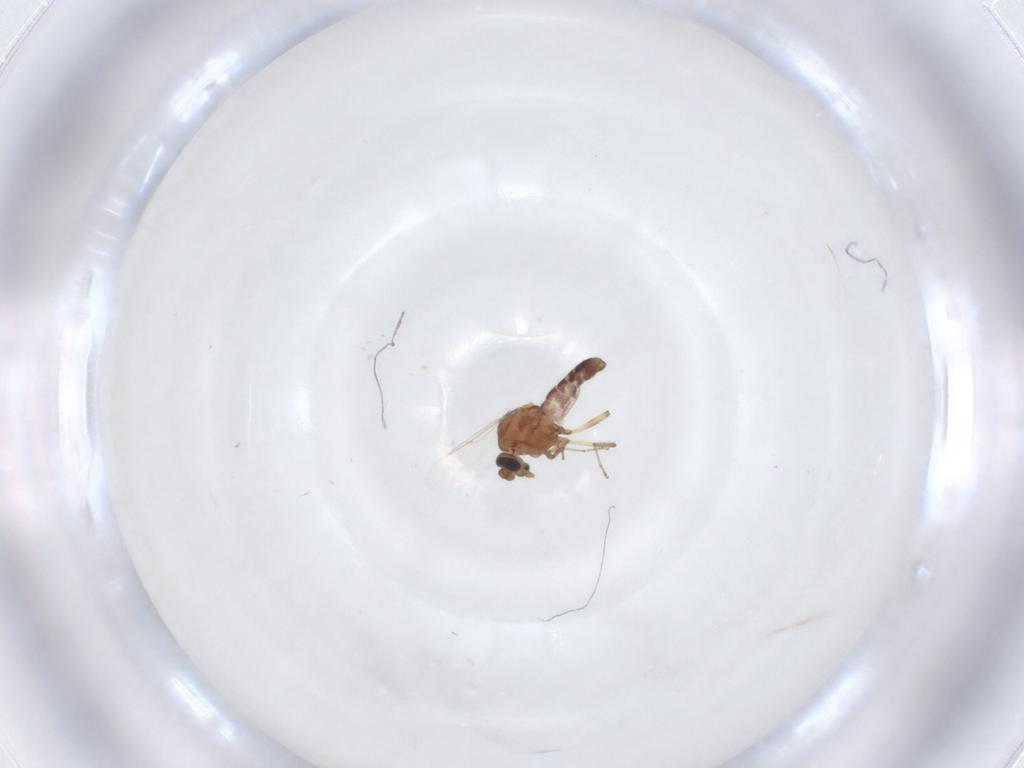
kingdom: Animalia
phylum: Arthropoda
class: Insecta
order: Diptera
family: Ceratopogonidae
